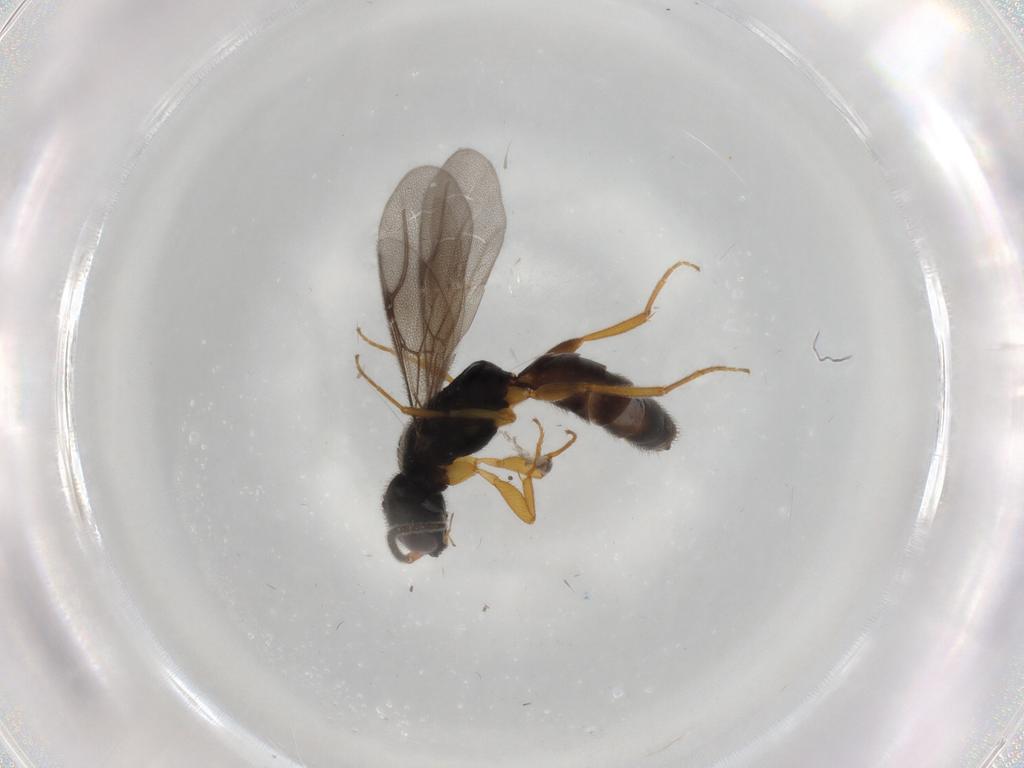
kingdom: Animalia
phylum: Arthropoda
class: Insecta
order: Hymenoptera
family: Bethylidae
